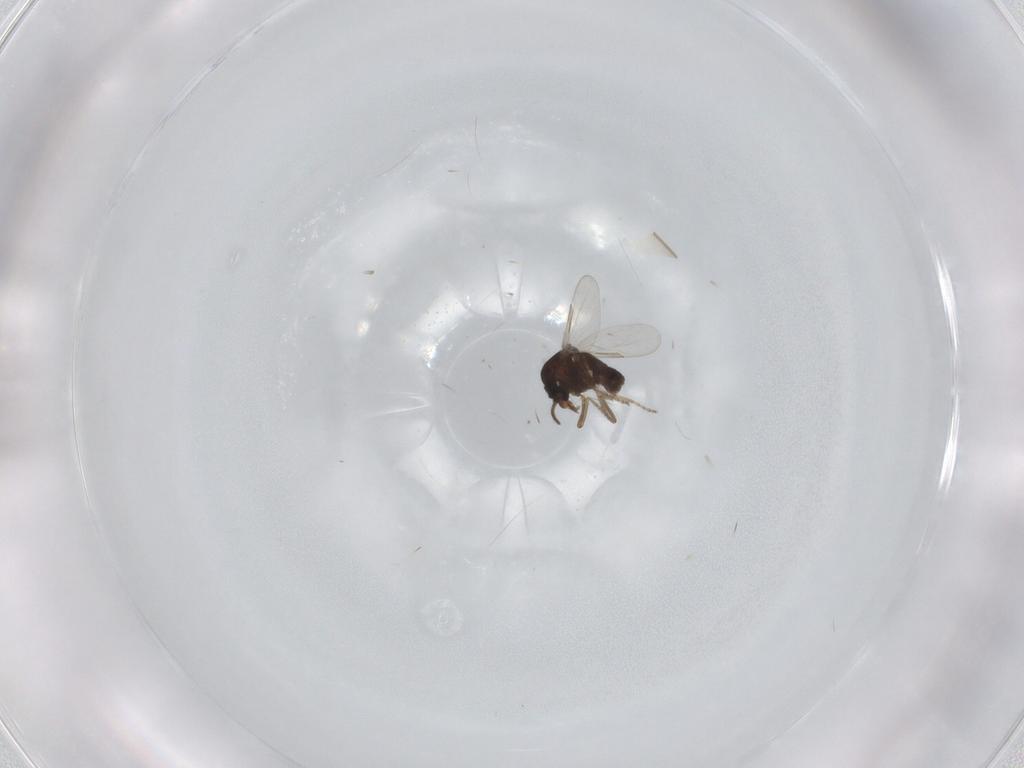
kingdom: Animalia
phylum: Arthropoda
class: Insecta
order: Diptera
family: Ceratopogonidae
